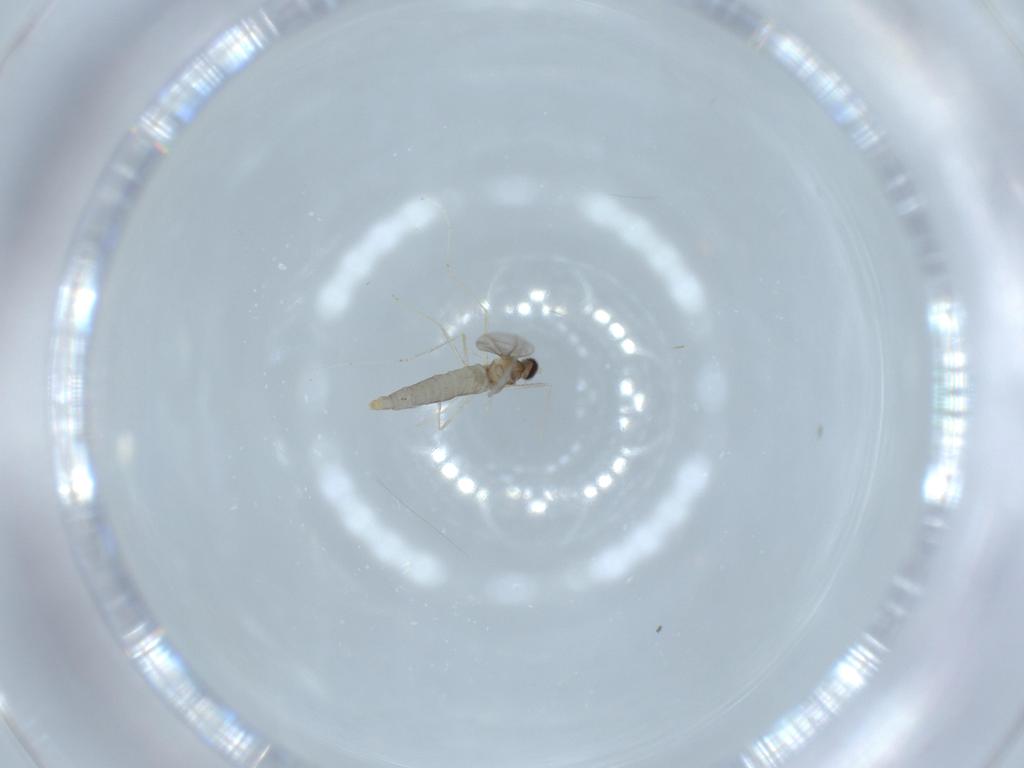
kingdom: Animalia
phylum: Arthropoda
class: Insecta
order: Diptera
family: Cecidomyiidae
